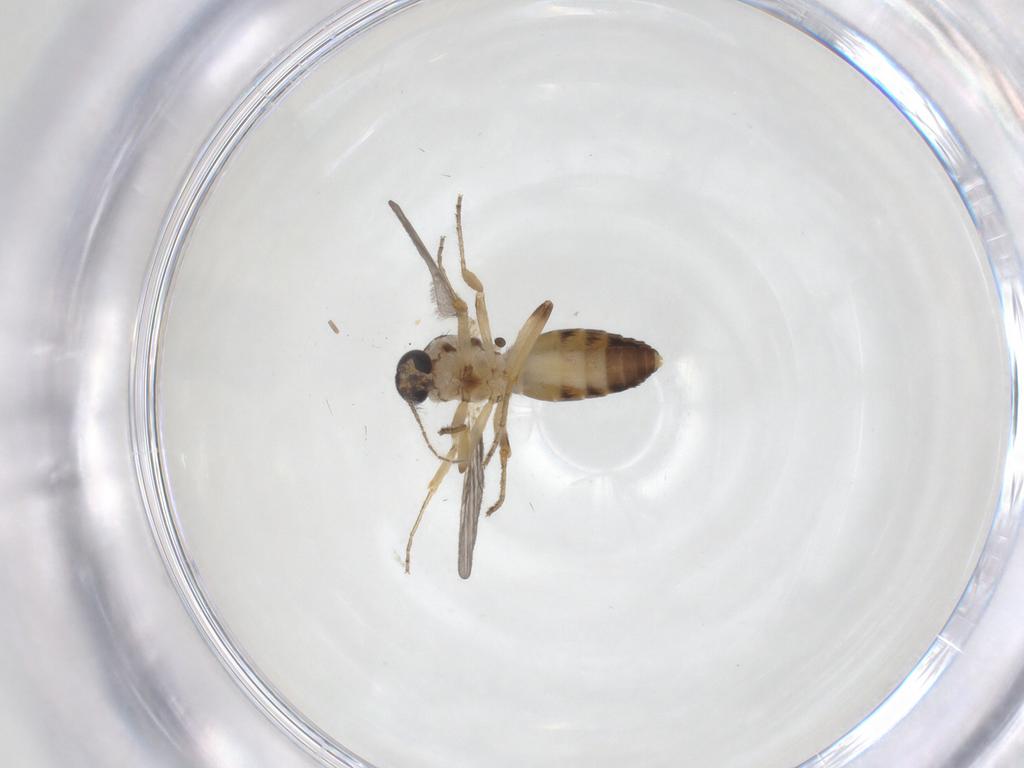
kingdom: Animalia
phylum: Arthropoda
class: Insecta
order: Diptera
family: Ceratopogonidae
